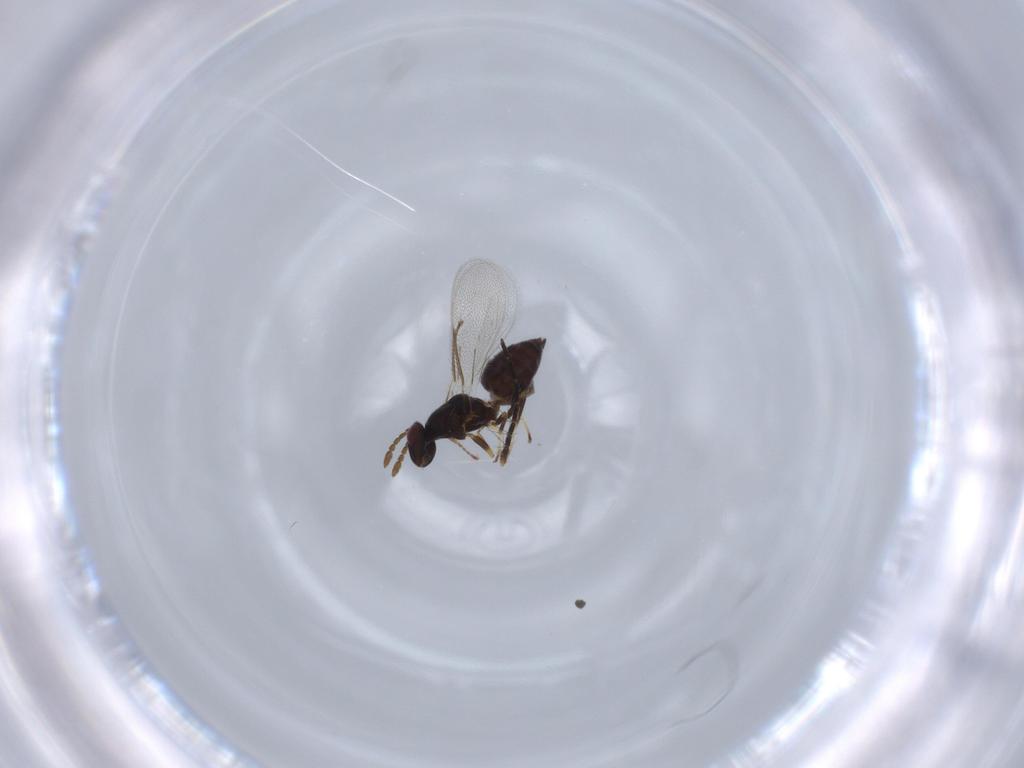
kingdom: Animalia
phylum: Arthropoda
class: Insecta
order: Hymenoptera
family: Eulophidae
